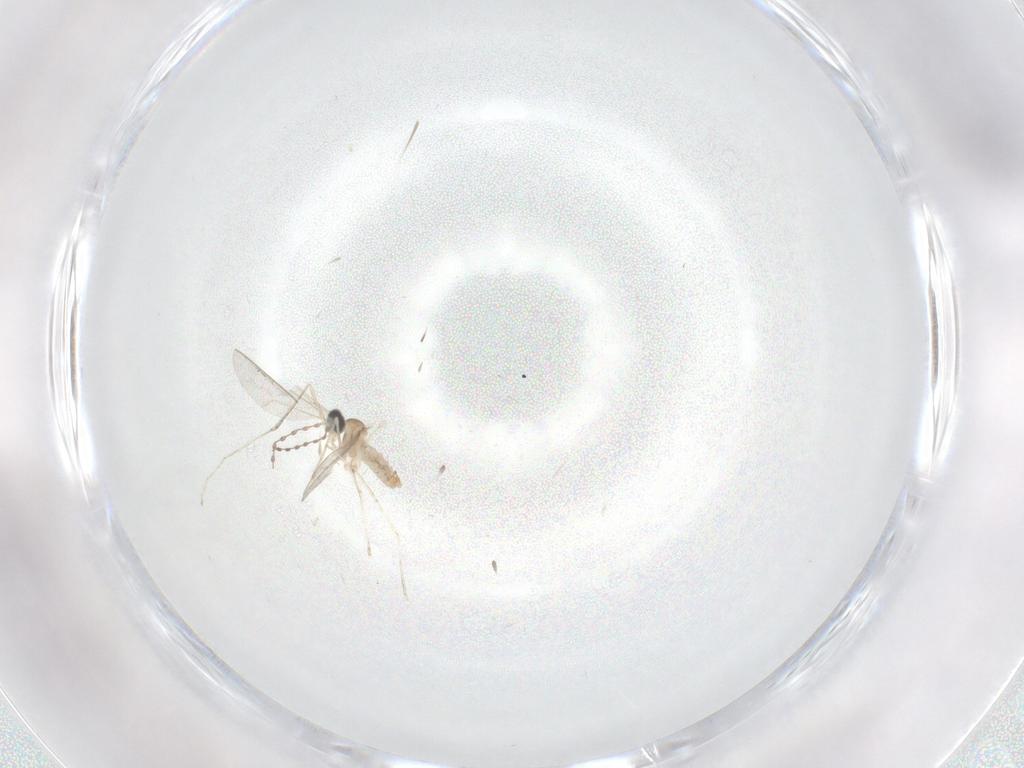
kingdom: Animalia
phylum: Arthropoda
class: Insecta
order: Diptera
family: Cecidomyiidae
